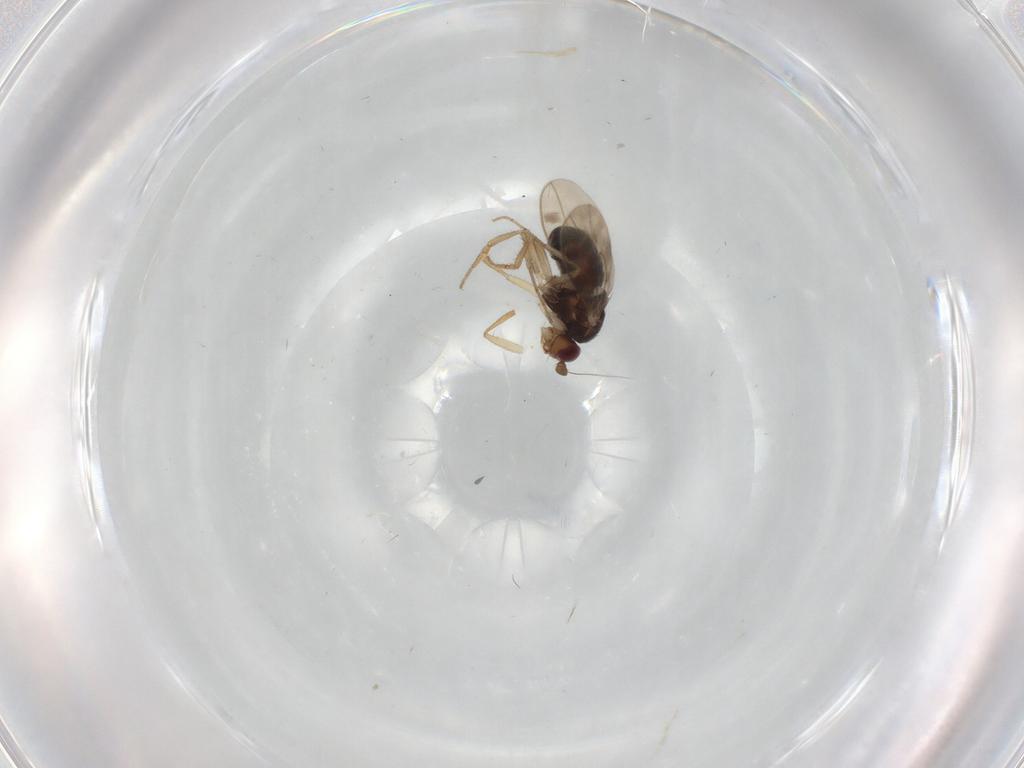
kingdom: Animalia
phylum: Arthropoda
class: Insecta
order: Diptera
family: Sphaeroceridae
